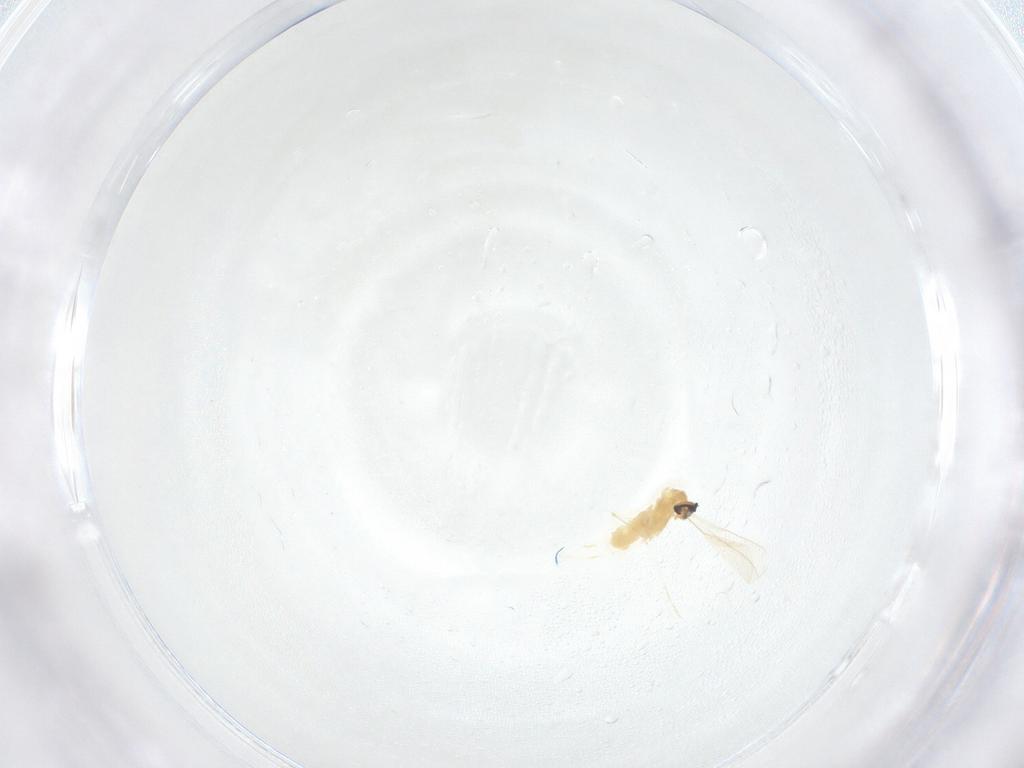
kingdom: Animalia
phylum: Arthropoda
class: Insecta
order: Diptera
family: Cecidomyiidae
